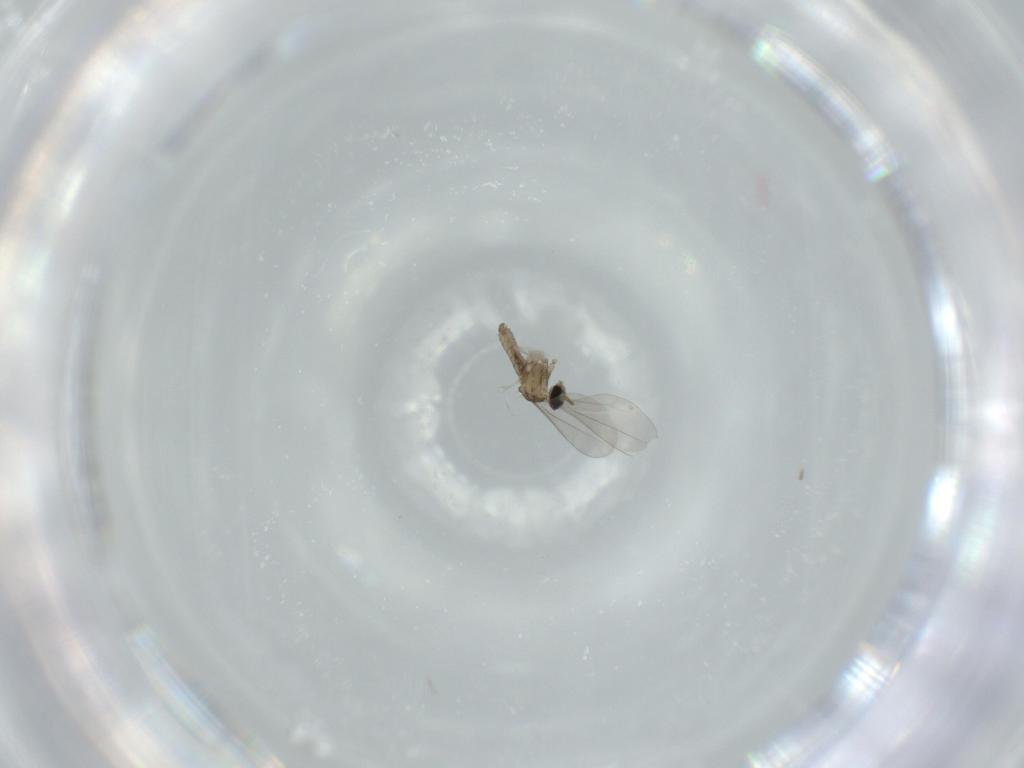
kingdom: Animalia
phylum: Arthropoda
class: Insecta
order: Diptera
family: Cecidomyiidae
